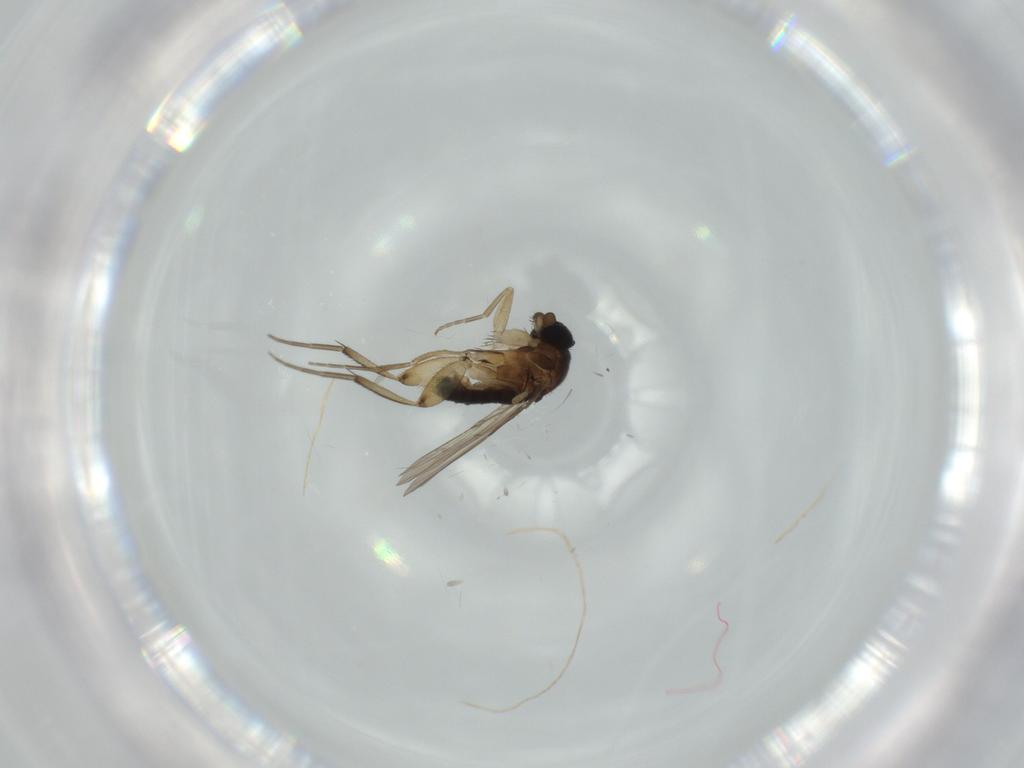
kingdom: Animalia
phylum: Arthropoda
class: Insecta
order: Diptera
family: Phoridae
